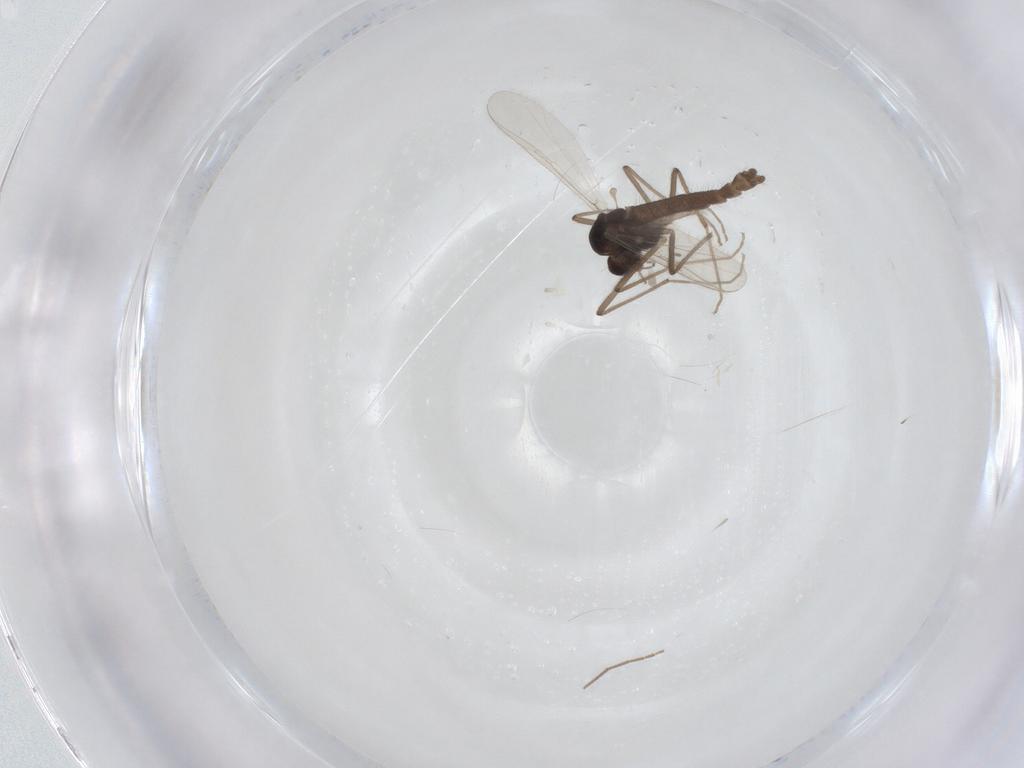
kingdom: Animalia
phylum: Arthropoda
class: Insecta
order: Diptera
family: Chironomidae
